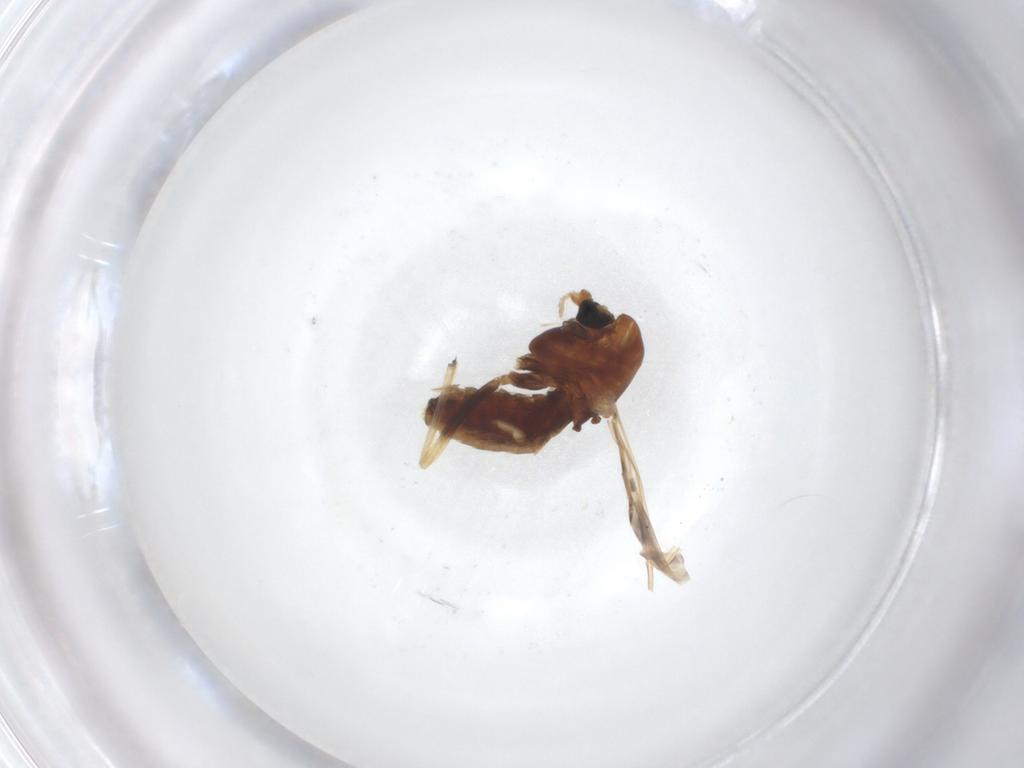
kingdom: Animalia
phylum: Arthropoda
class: Insecta
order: Diptera
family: Chironomidae
